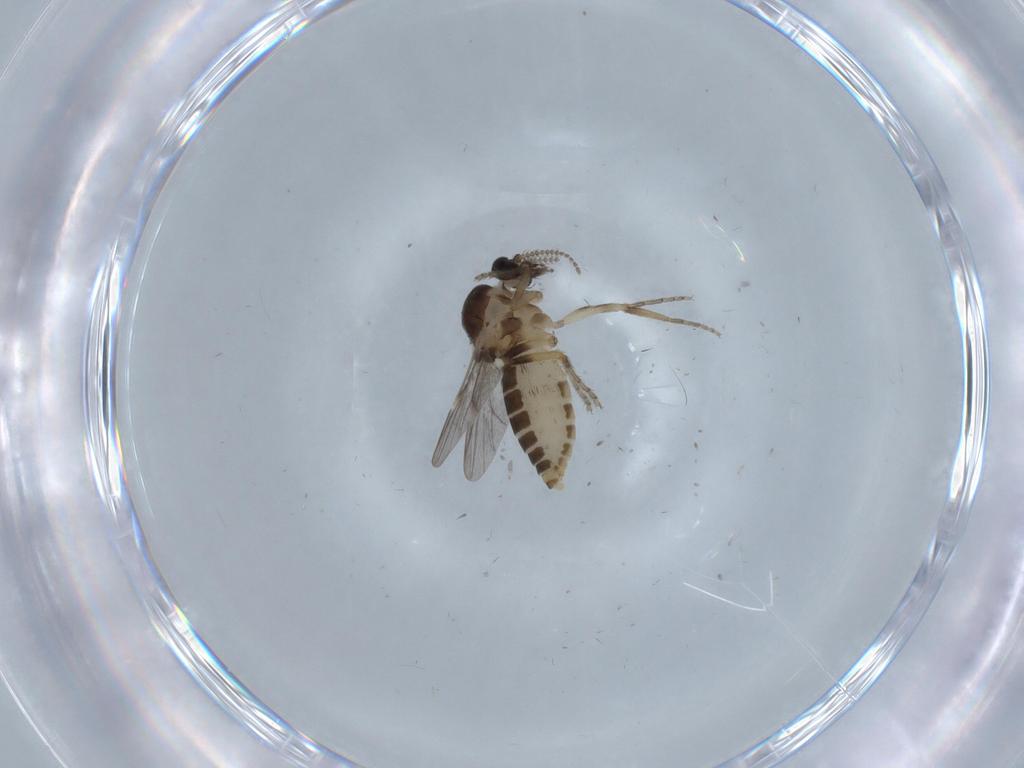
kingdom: Animalia
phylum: Arthropoda
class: Insecta
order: Diptera
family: Ceratopogonidae
